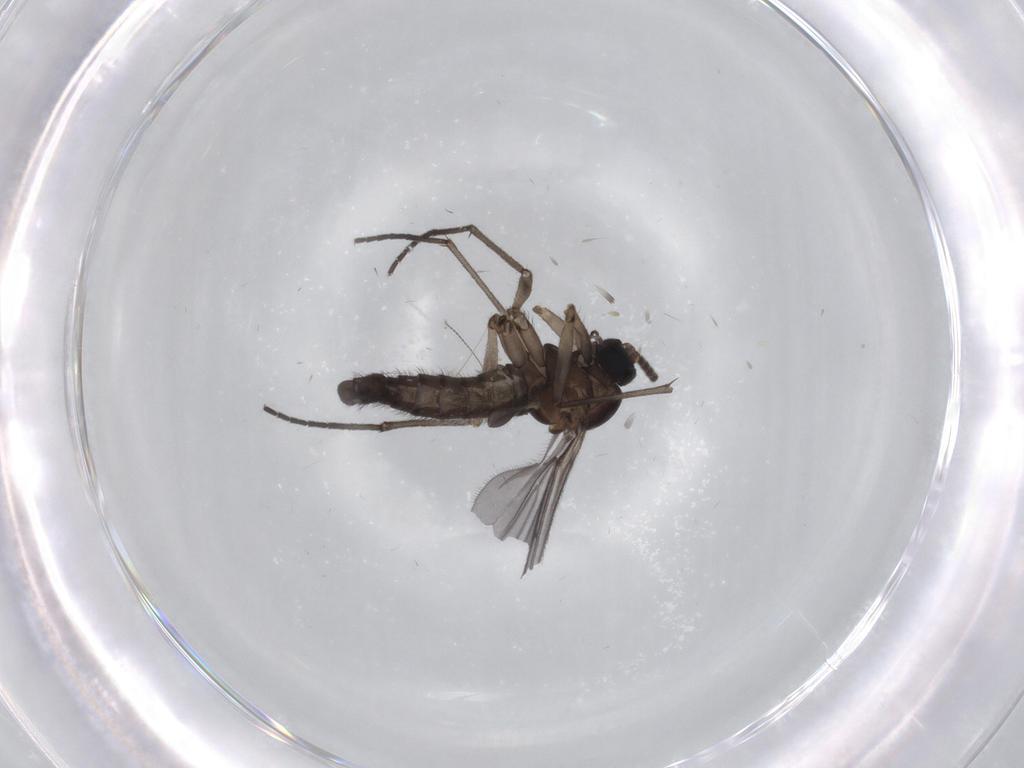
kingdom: Animalia
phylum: Arthropoda
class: Insecta
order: Diptera
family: Sciaridae
